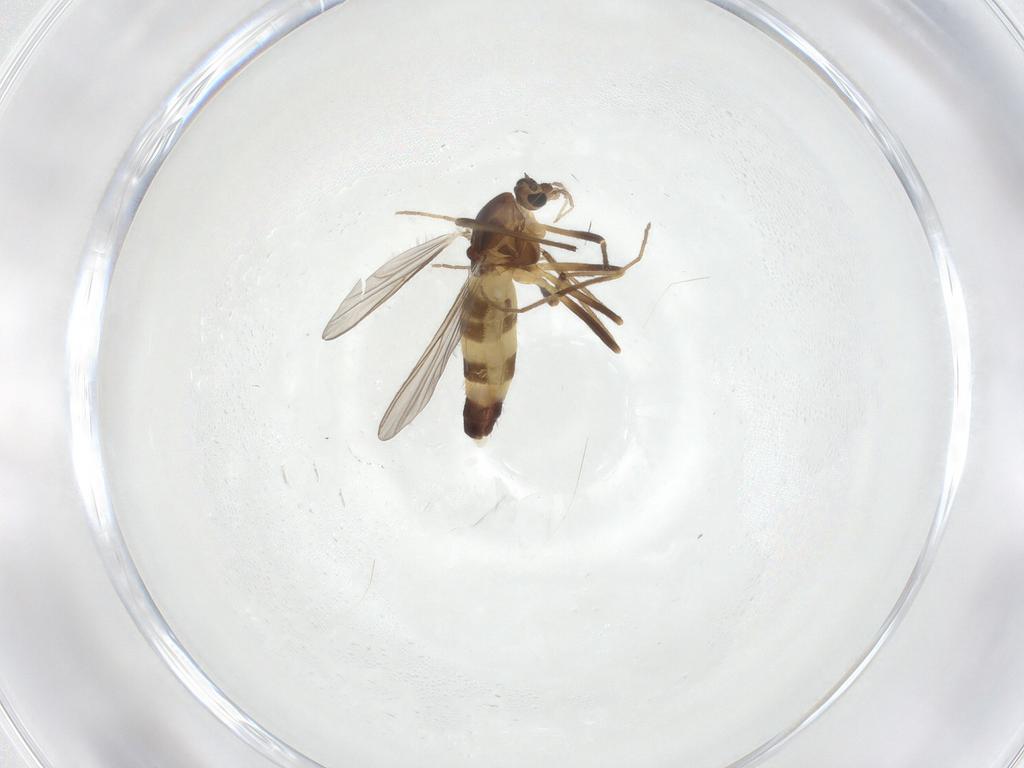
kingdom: Animalia
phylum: Arthropoda
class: Insecta
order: Diptera
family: Chironomidae
